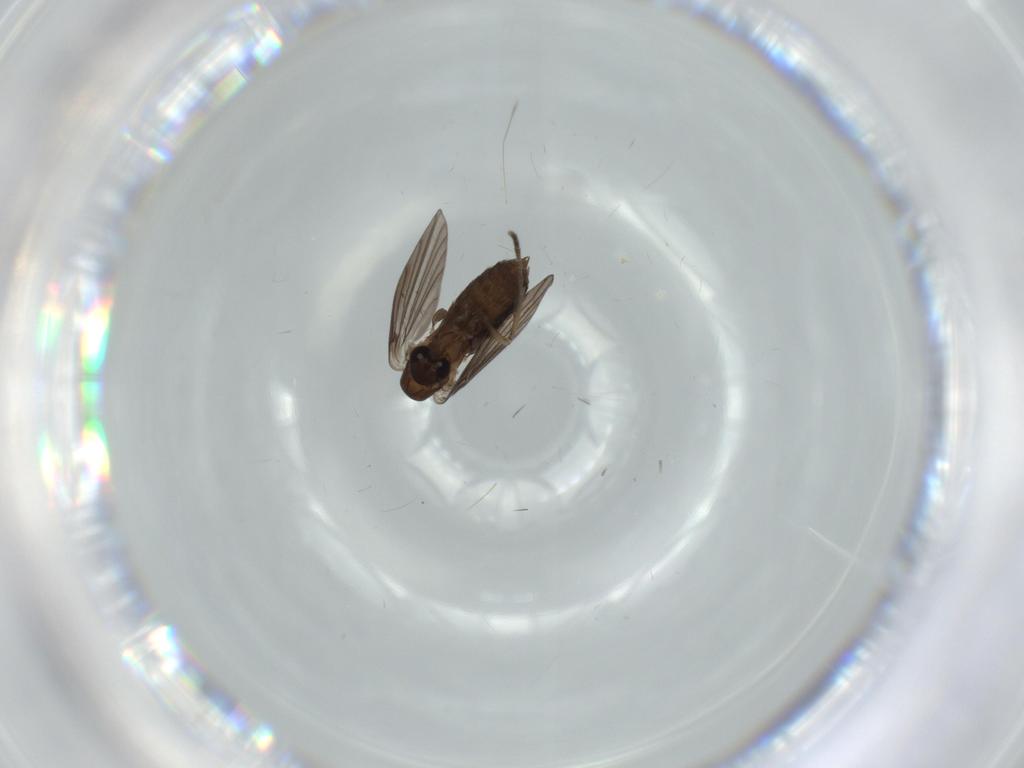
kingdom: Animalia
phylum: Arthropoda
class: Insecta
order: Diptera
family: Psychodidae
